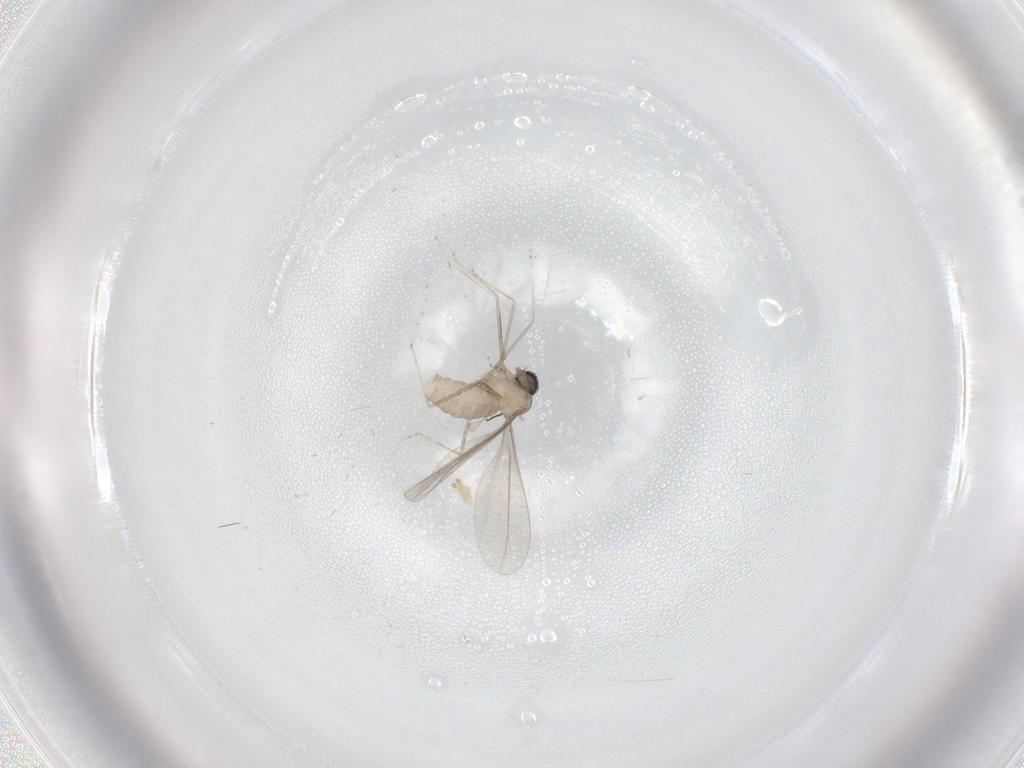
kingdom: Animalia
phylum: Arthropoda
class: Insecta
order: Diptera
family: Cecidomyiidae
